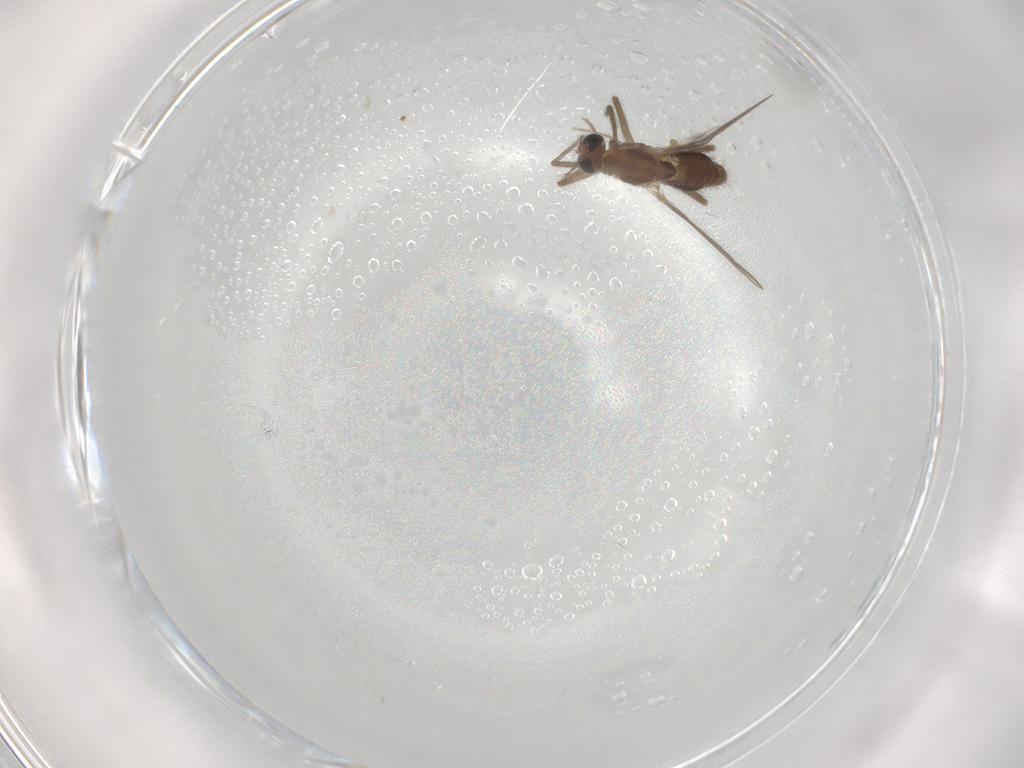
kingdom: Animalia
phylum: Arthropoda
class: Insecta
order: Diptera
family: Chironomidae
